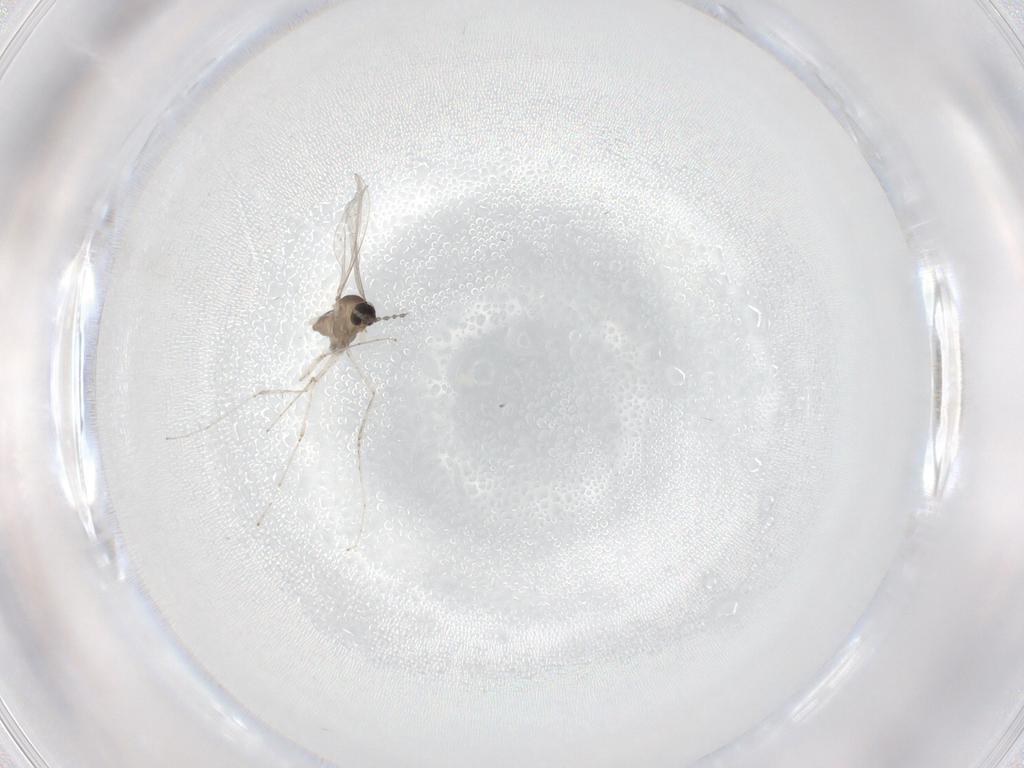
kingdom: Animalia
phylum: Arthropoda
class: Insecta
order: Diptera
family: Cecidomyiidae
